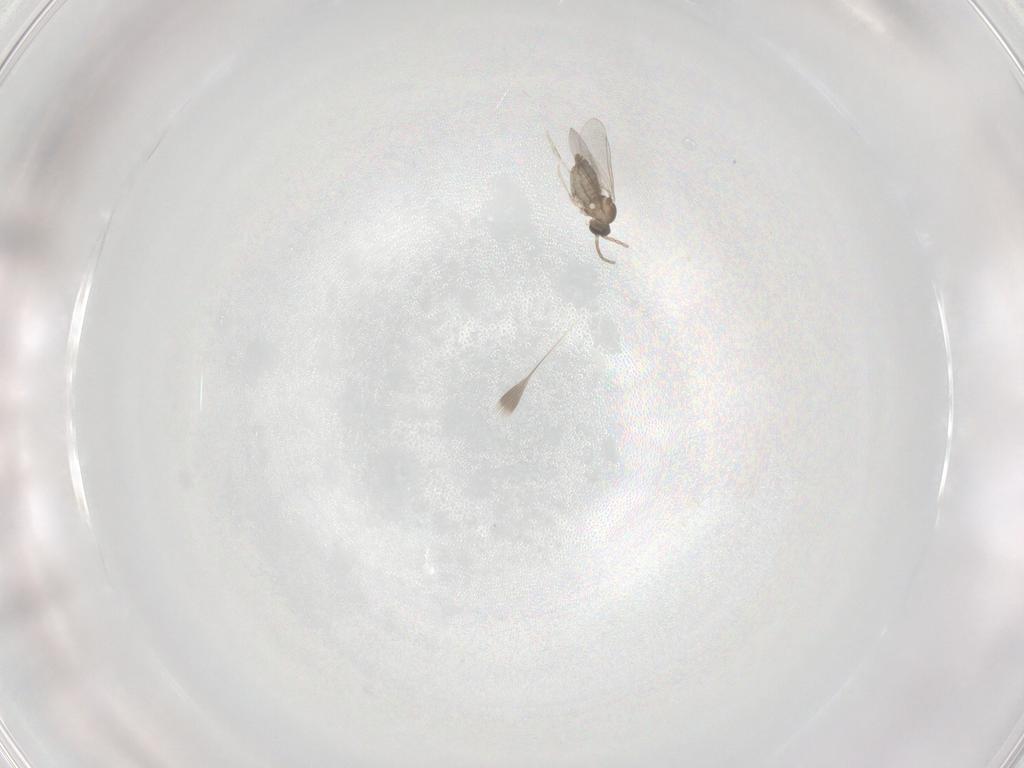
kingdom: Animalia
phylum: Arthropoda
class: Insecta
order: Diptera
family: Cecidomyiidae
